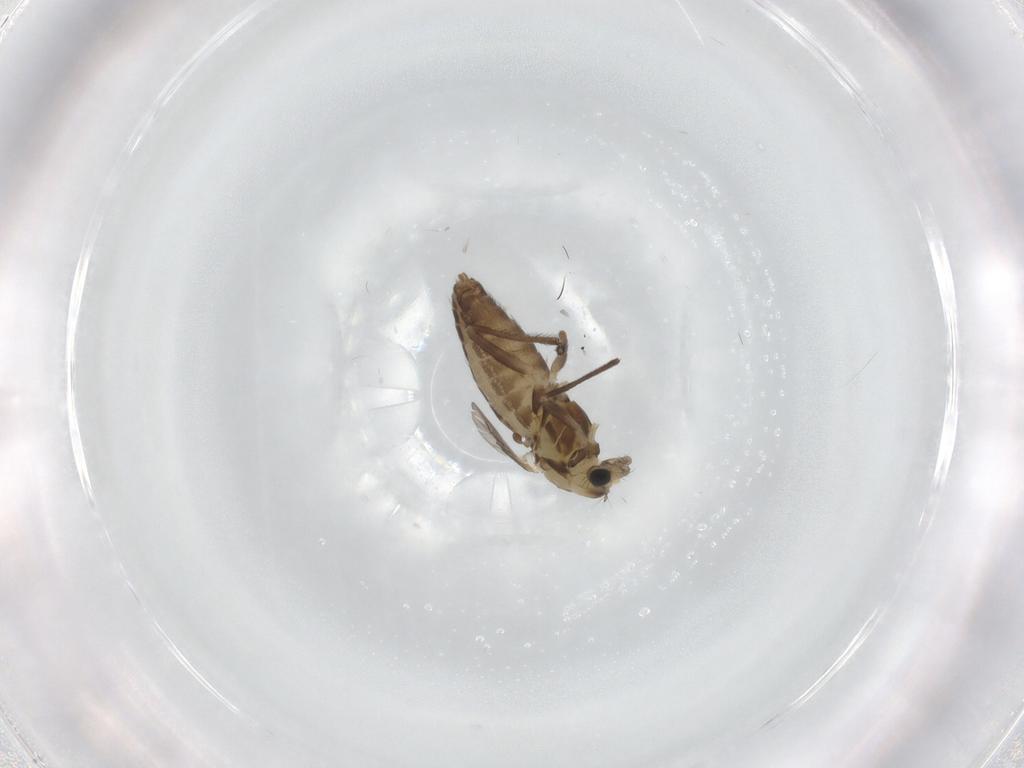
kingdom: Animalia
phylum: Arthropoda
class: Insecta
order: Diptera
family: Chironomidae
